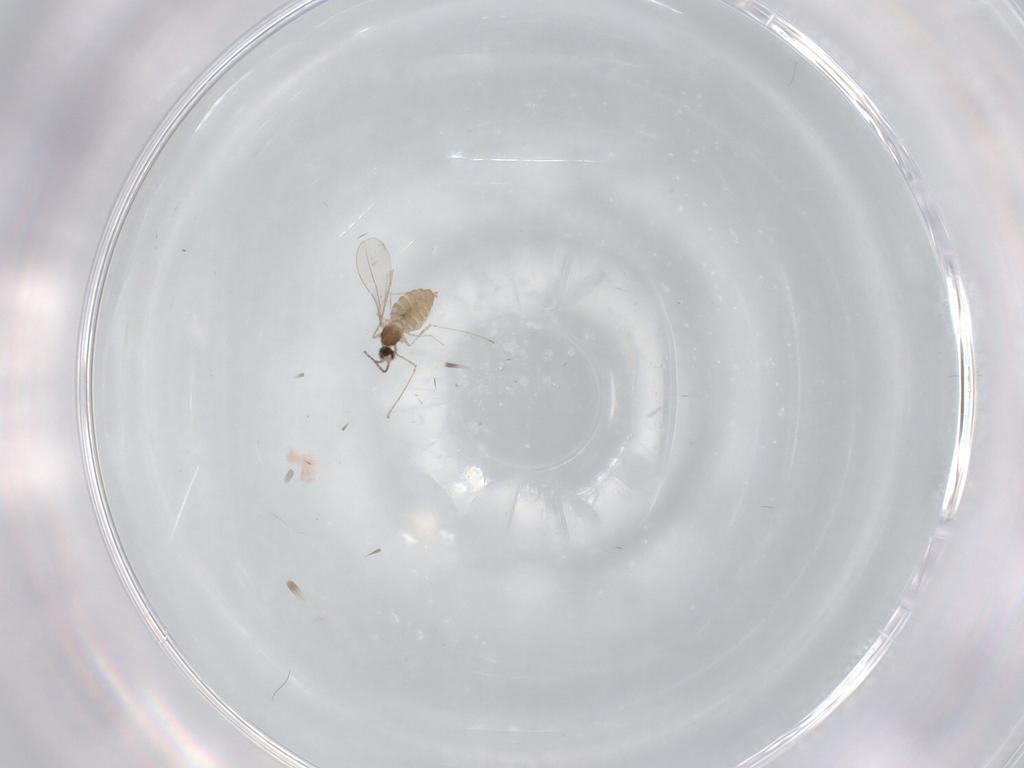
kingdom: Animalia
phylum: Arthropoda
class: Insecta
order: Diptera
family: Cecidomyiidae
